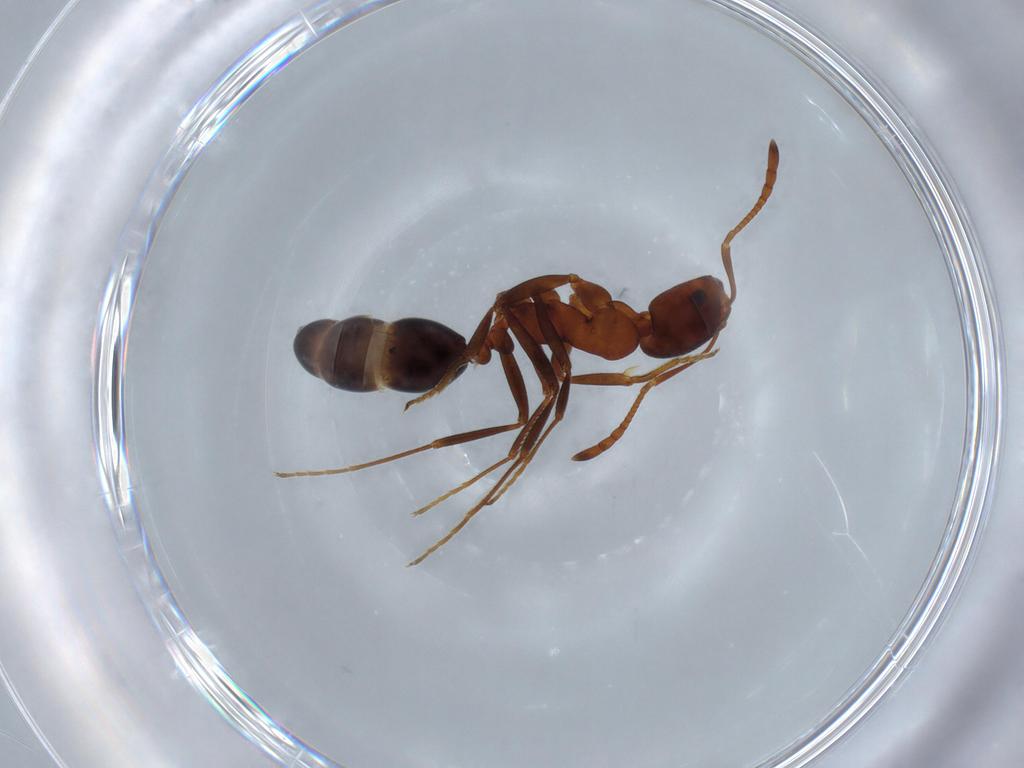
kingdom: Animalia
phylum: Arthropoda
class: Insecta
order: Hymenoptera
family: Formicidae
